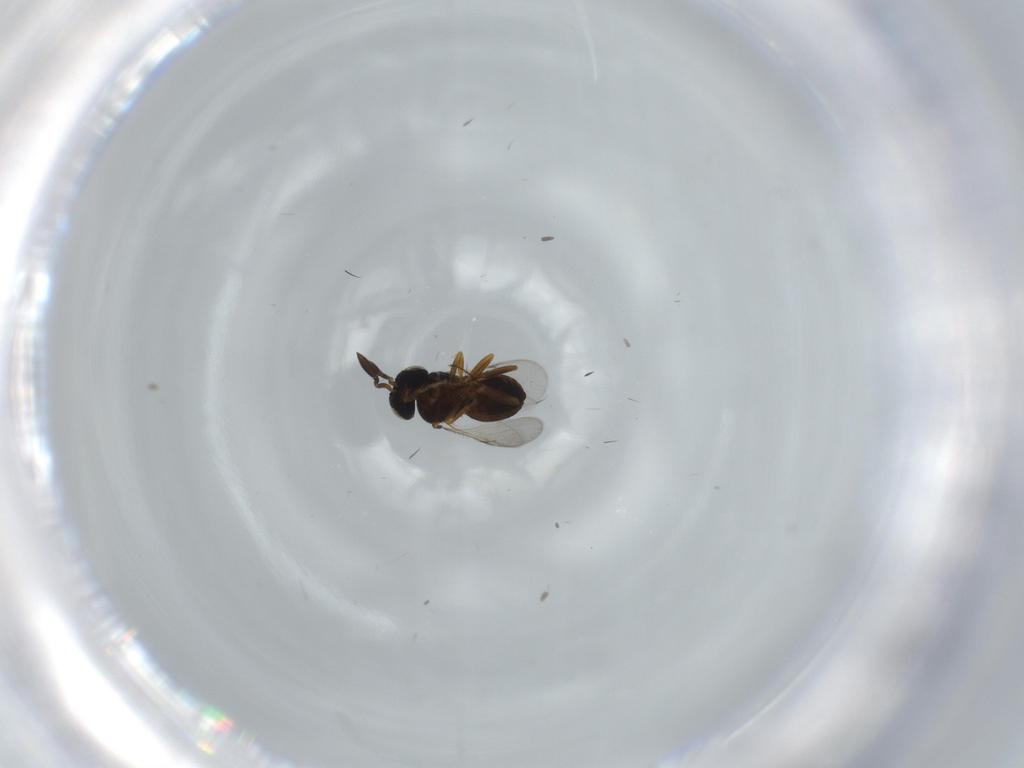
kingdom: Animalia
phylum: Arthropoda
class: Insecta
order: Coleoptera
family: Curculionidae
